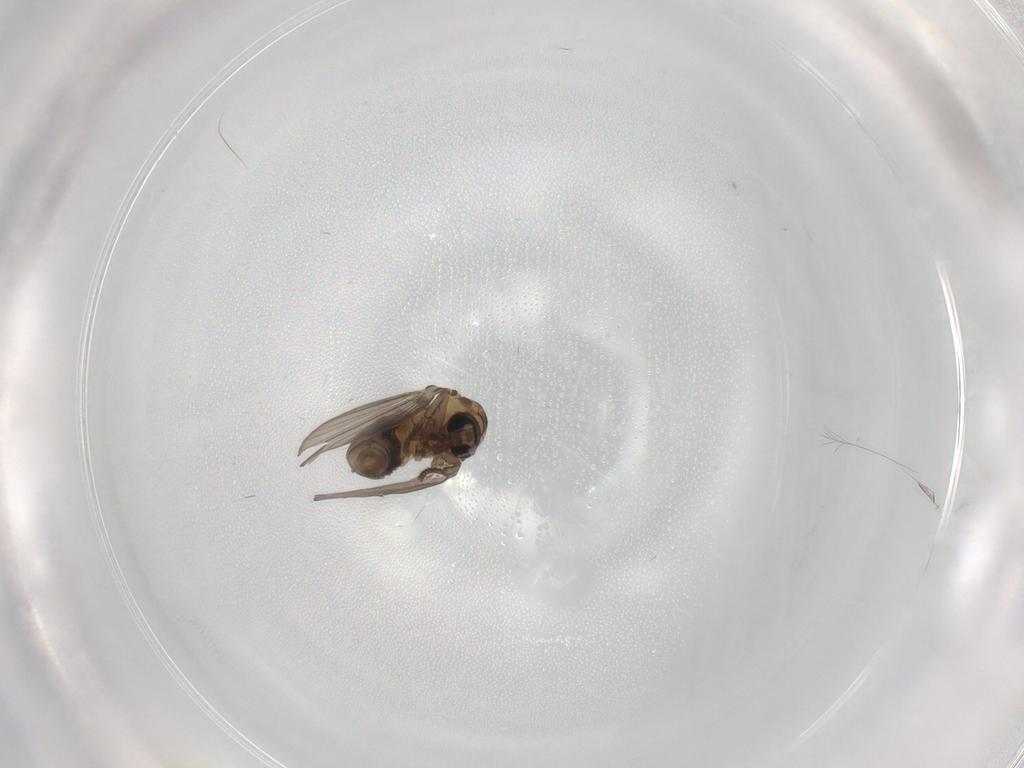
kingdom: Animalia
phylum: Arthropoda
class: Insecta
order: Diptera
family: Psychodidae
